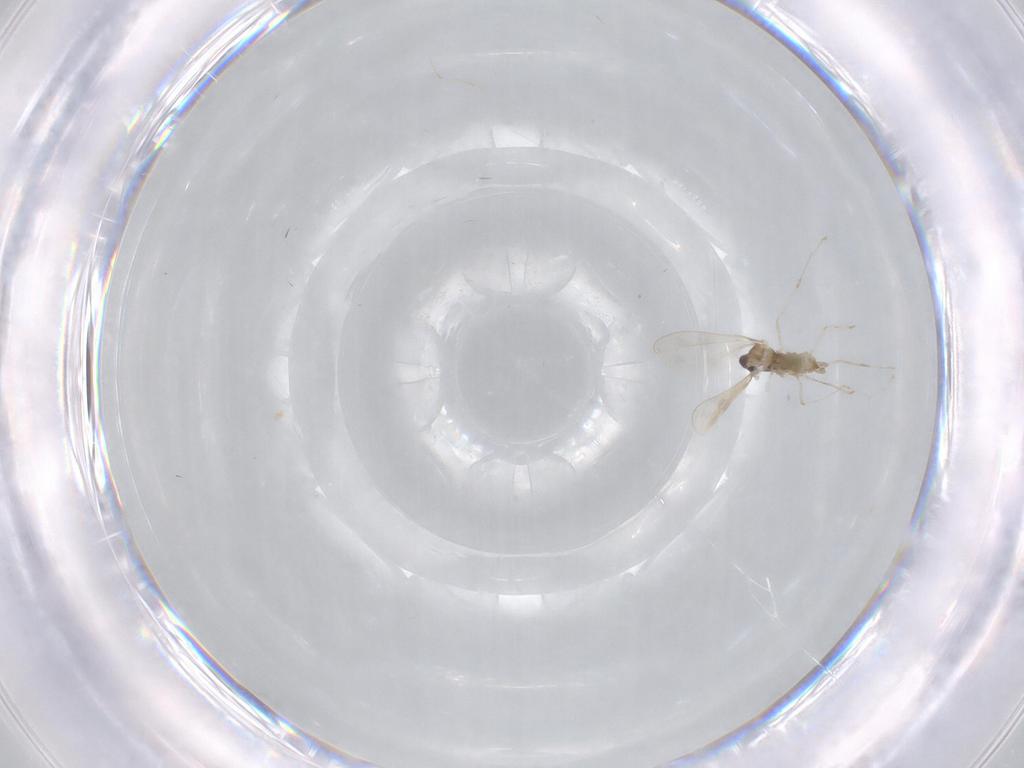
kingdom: Animalia
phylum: Arthropoda
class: Insecta
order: Diptera
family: Sciaridae
